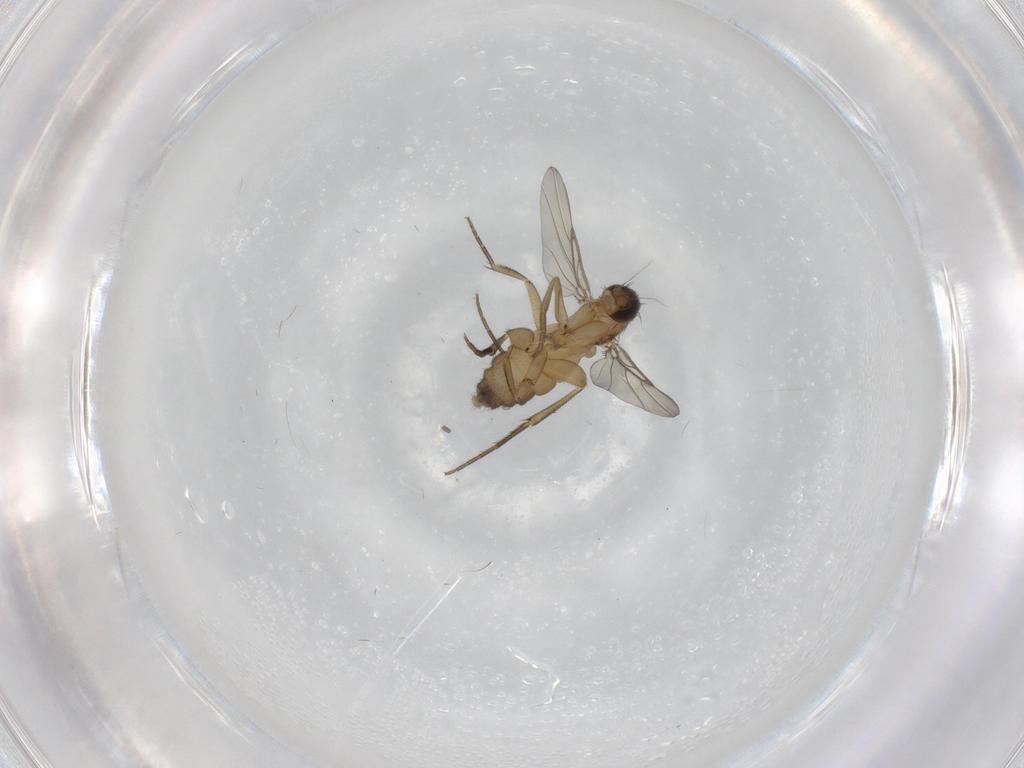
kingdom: Animalia
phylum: Arthropoda
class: Insecta
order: Diptera
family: Phoridae
